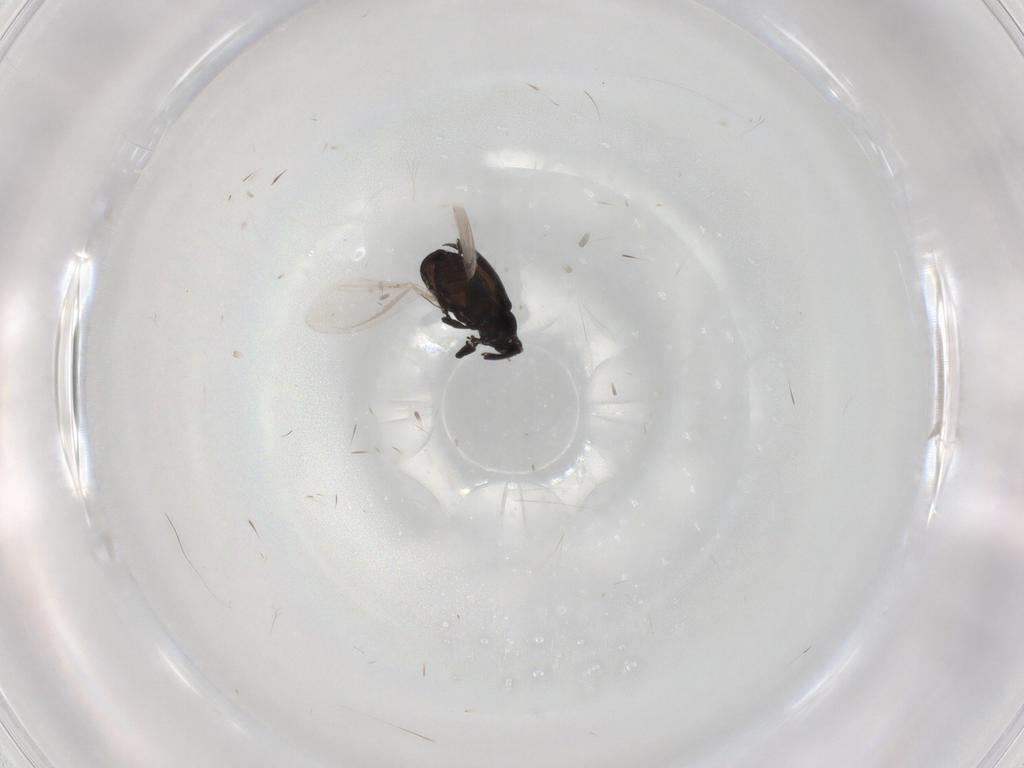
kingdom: Animalia
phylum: Arthropoda
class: Insecta
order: Coleoptera
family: Curculionidae
